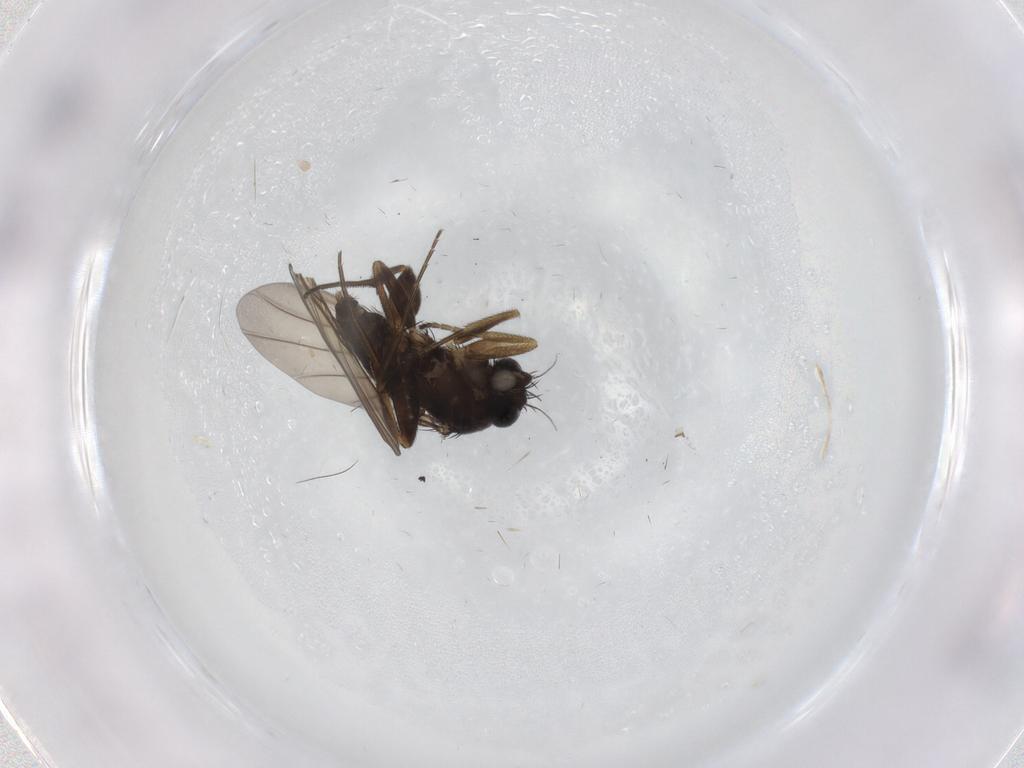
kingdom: Animalia
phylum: Arthropoda
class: Insecta
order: Diptera
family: Phoridae
